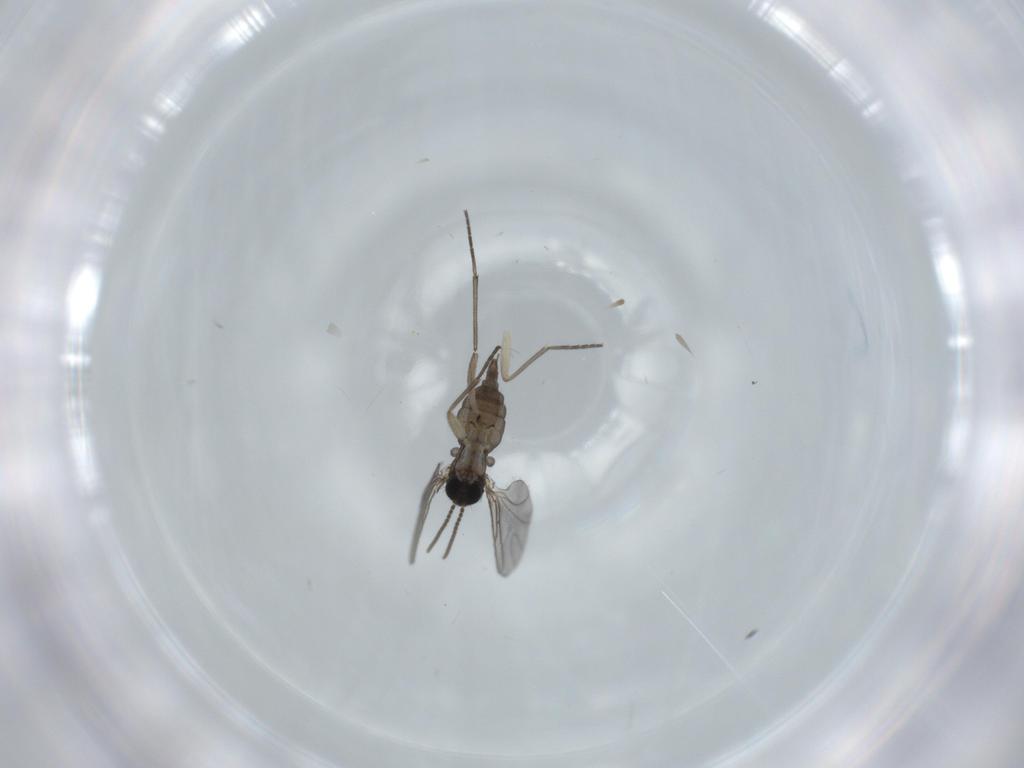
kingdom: Animalia
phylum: Arthropoda
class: Insecta
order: Diptera
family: Sciaridae
